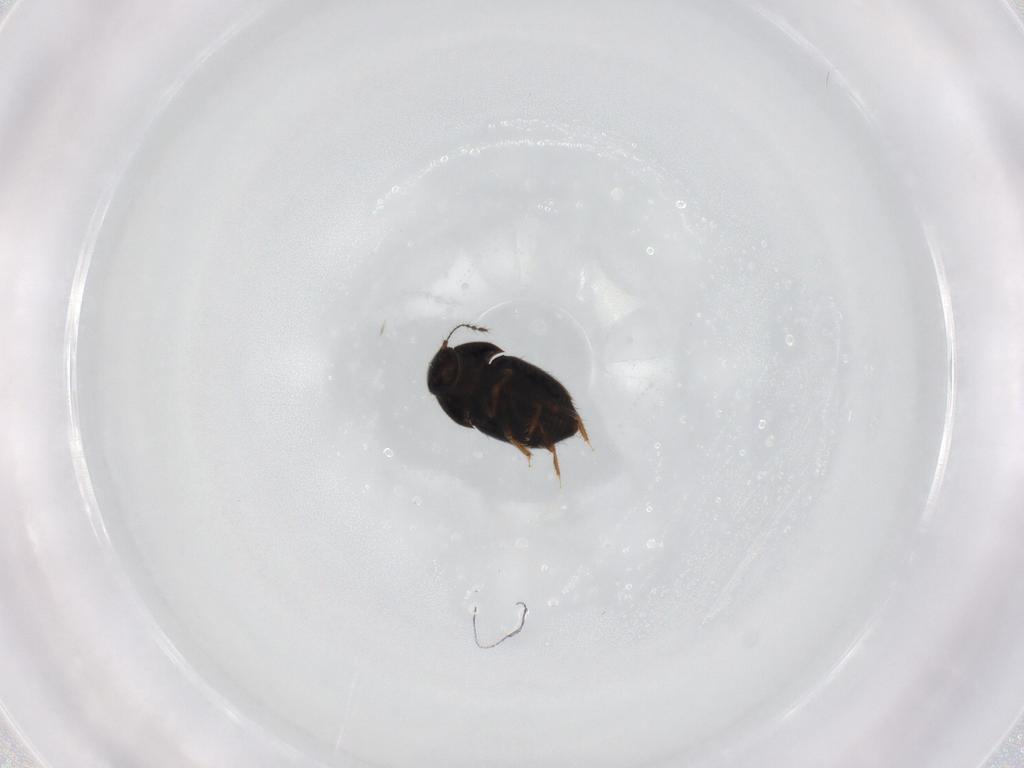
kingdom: Animalia
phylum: Arthropoda
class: Insecta
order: Coleoptera
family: Ptiliidae
